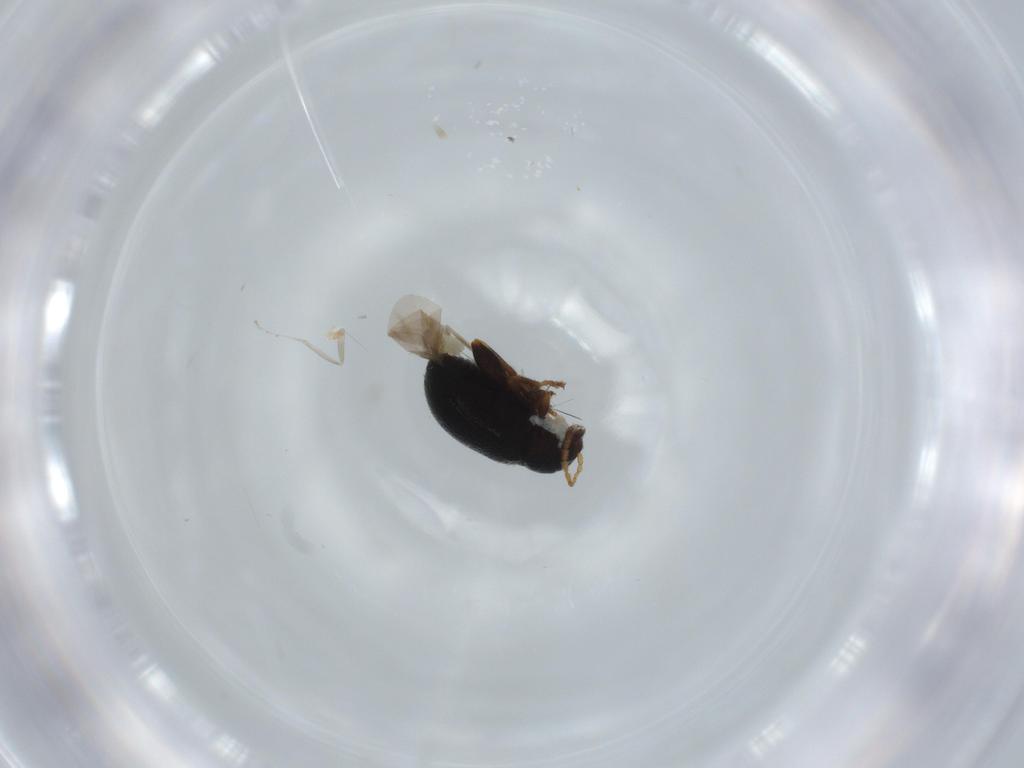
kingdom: Animalia
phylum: Arthropoda
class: Insecta
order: Coleoptera
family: Chrysomelidae
